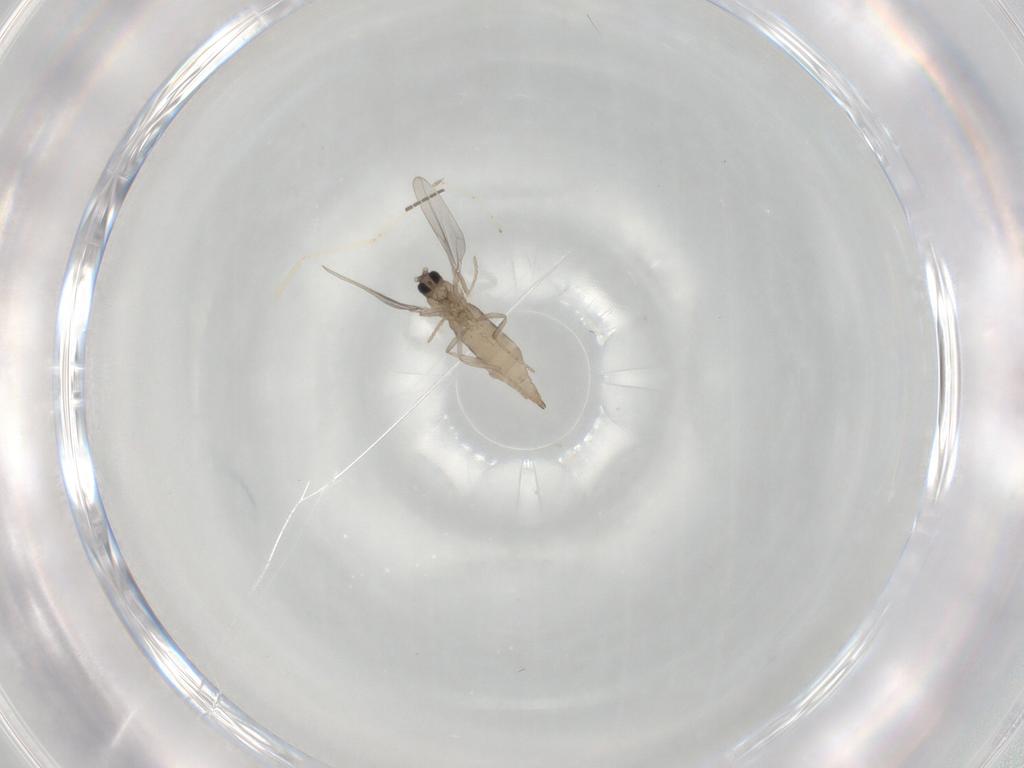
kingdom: Animalia
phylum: Arthropoda
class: Insecta
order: Diptera
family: Cecidomyiidae
